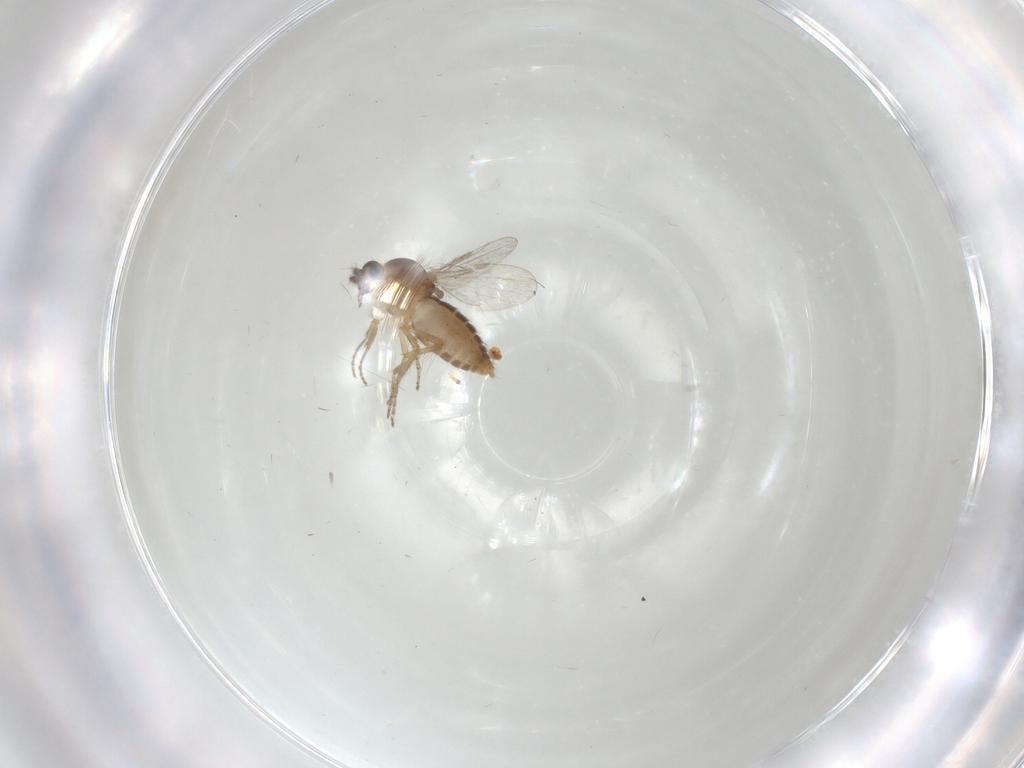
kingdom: Animalia
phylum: Arthropoda
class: Insecta
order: Diptera
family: Ceratopogonidae
